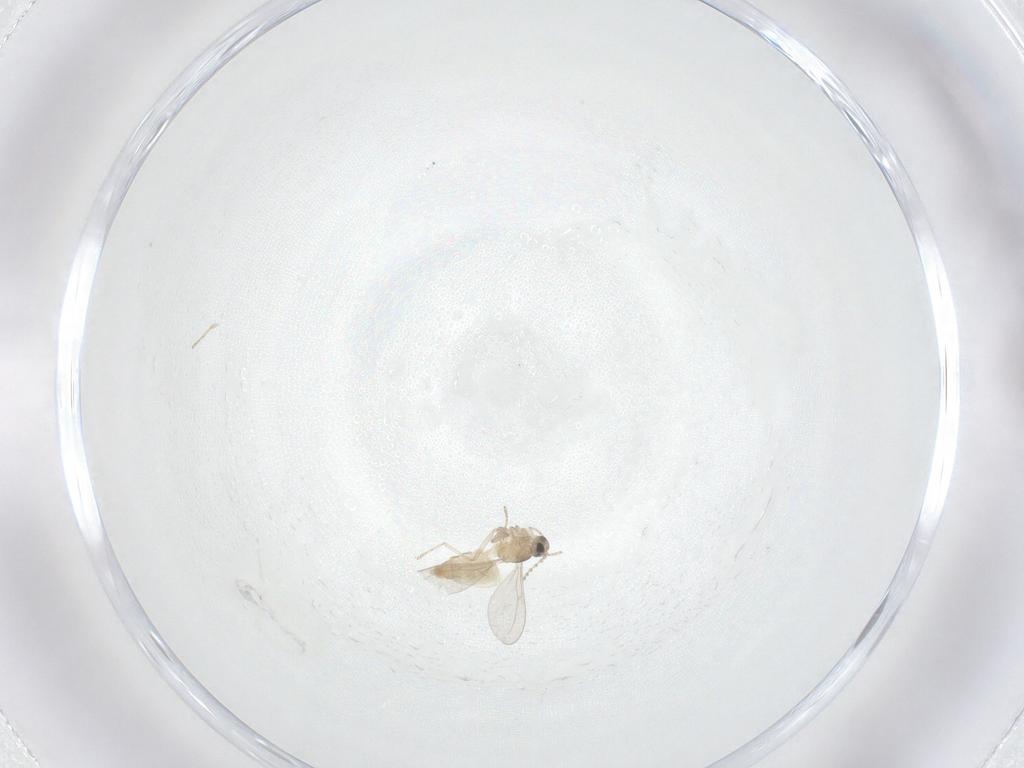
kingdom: Animalia
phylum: Arthropoda
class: Insecta
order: Diptera
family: Cecidomyiidae
